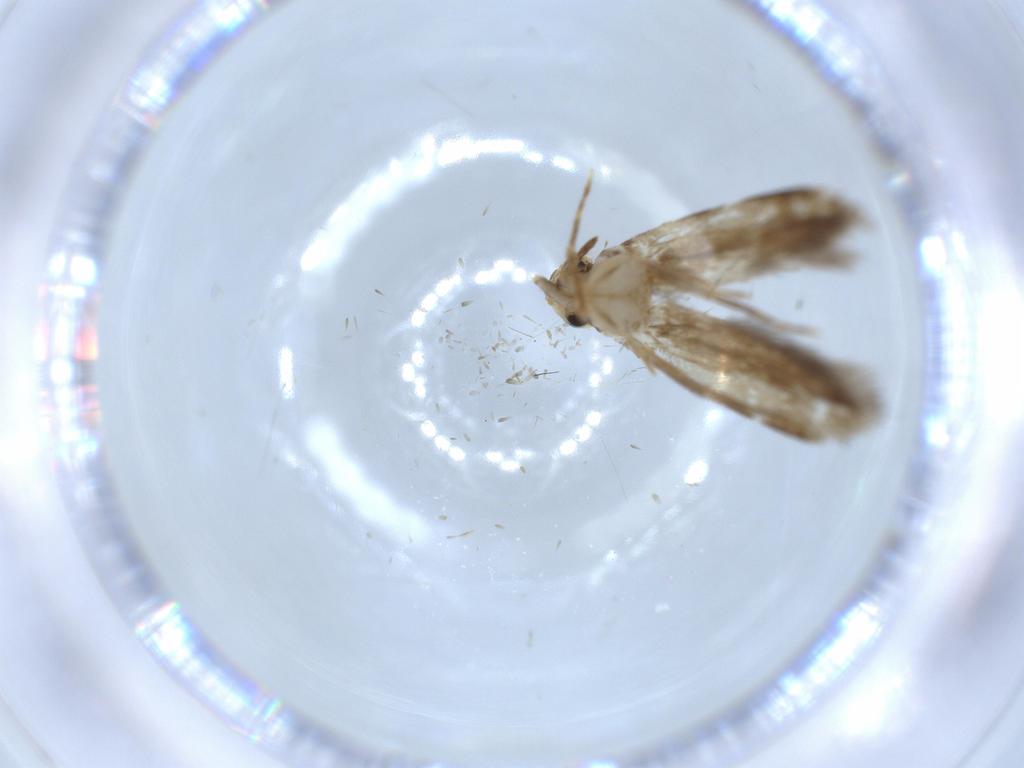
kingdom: Animalia
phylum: Arthropoda
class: Insecta
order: Lepidoptera
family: Tineidae
